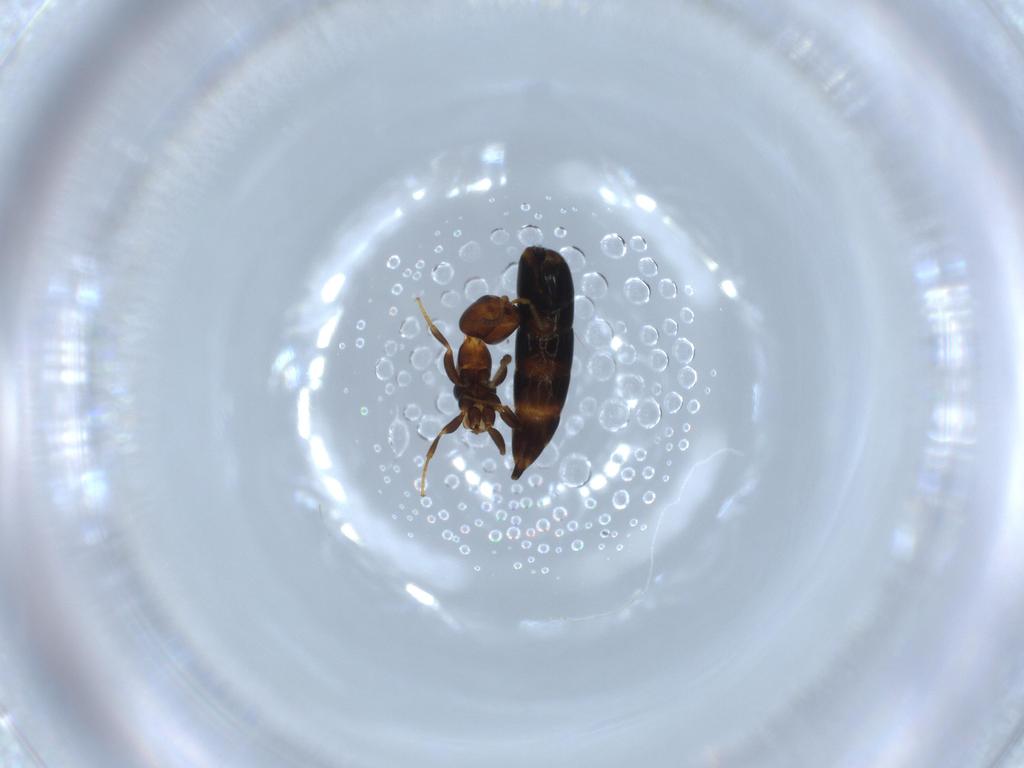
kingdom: Animalia
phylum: Arthropoda
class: Insecta
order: Hymenoptera
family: Bethylidae
